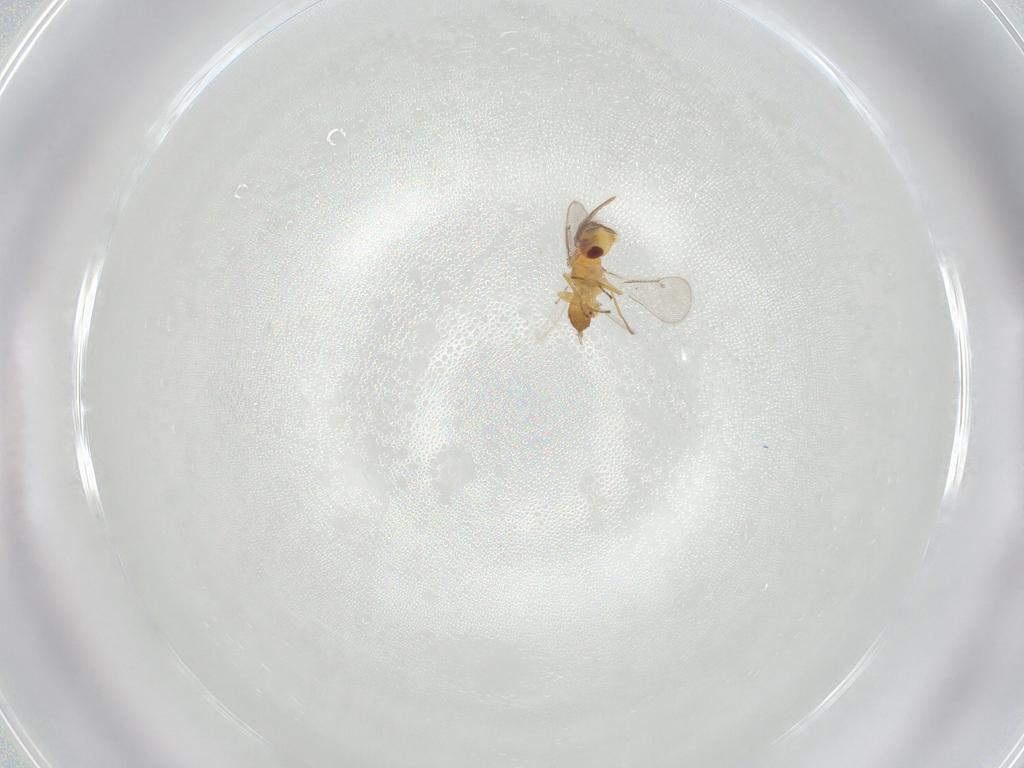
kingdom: Animalia
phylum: Arthropoda
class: Insecta
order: Hymenoptera
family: Eulophidae
